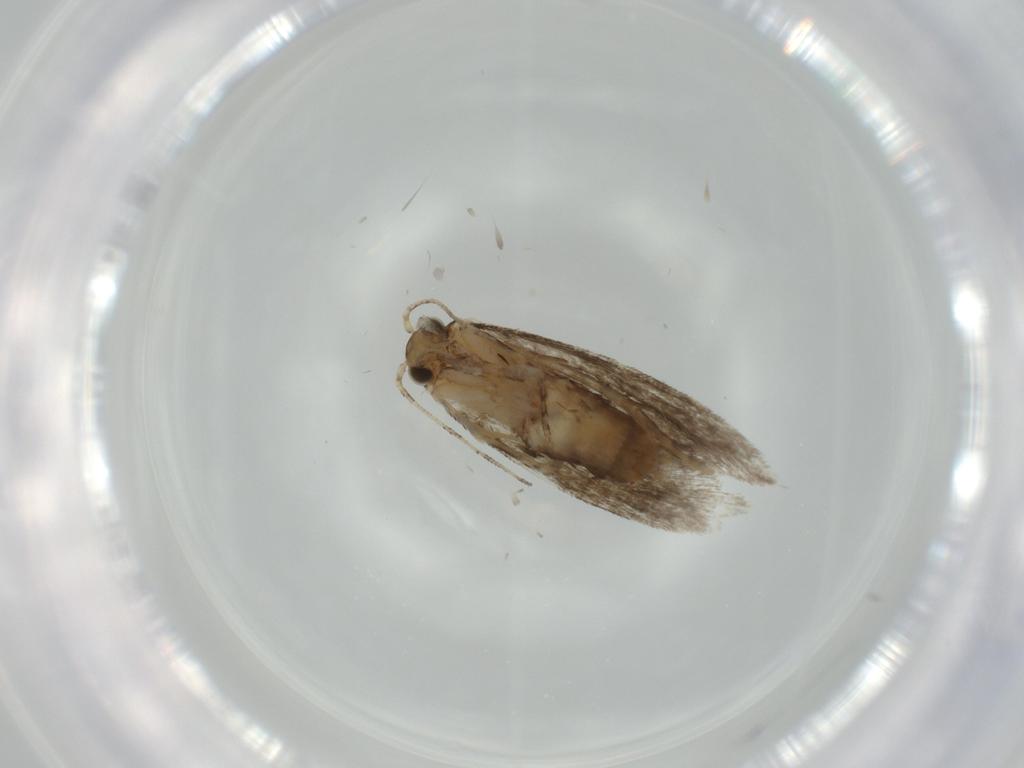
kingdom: Animalia
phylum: Arthropoda
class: Insecta
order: Lepidoptera
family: Tineidae
